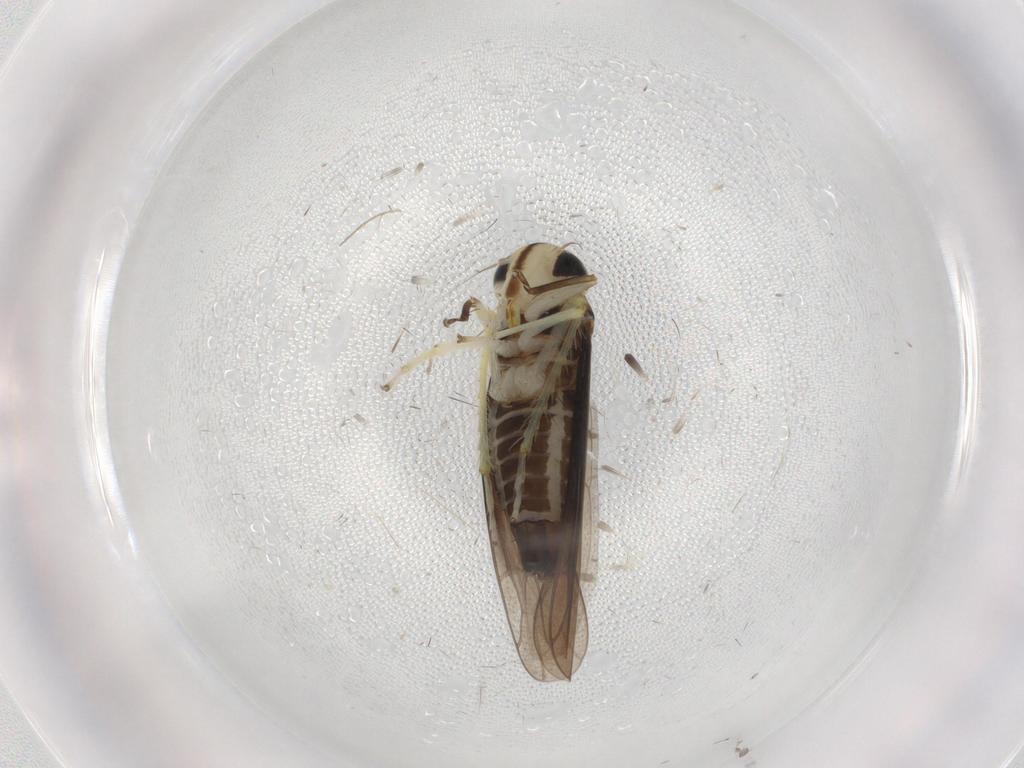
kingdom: Animalia
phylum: Arthropoda
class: Insecta
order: Hemiptera
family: Cicadellidae
